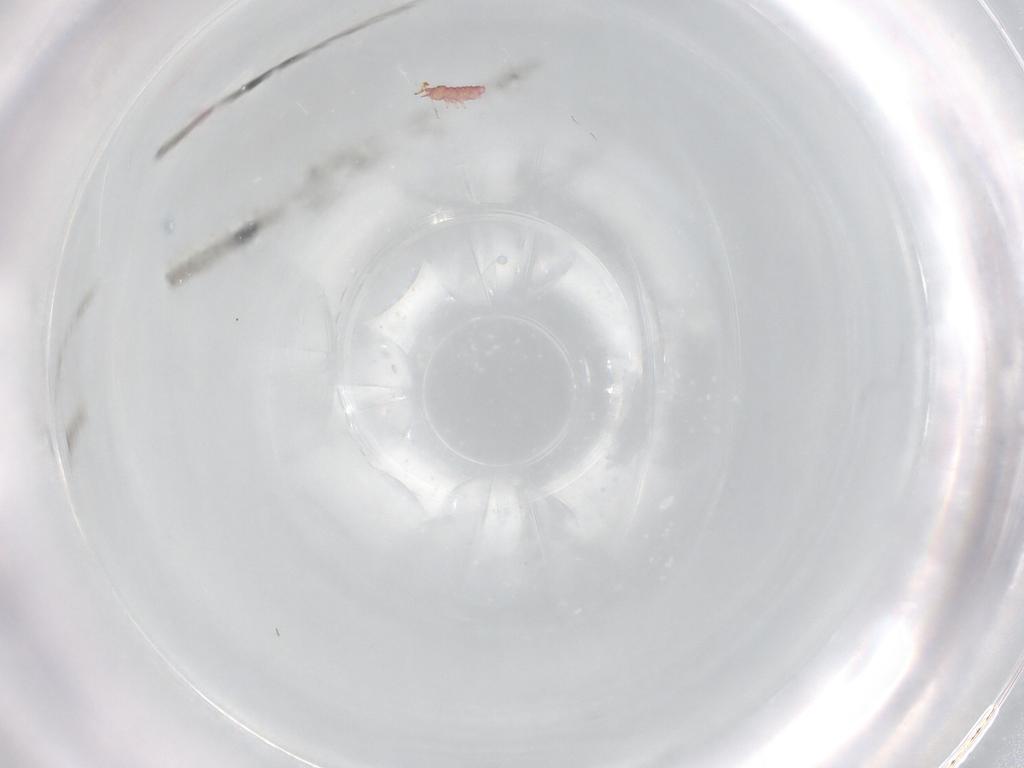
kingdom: Animalia
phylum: Arthropoda
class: Collembola
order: Poduromorpha
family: Hypogastruridae
